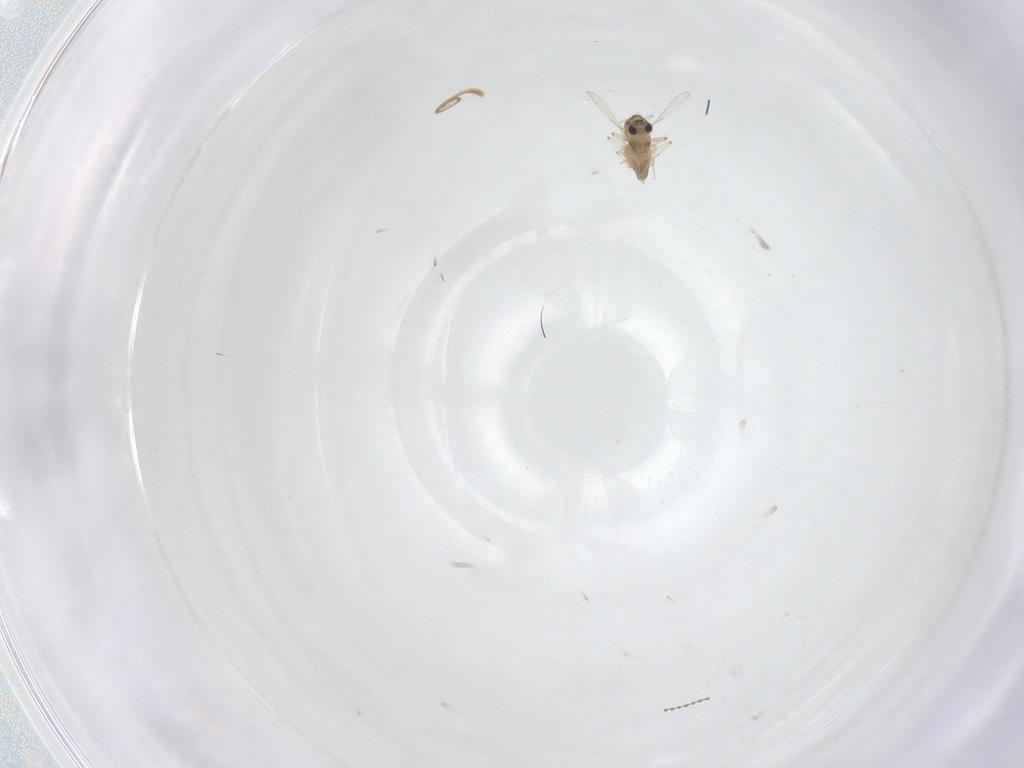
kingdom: Animalia
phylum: Arthropoda
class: Insecta
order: Diptera
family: Chironomidae
